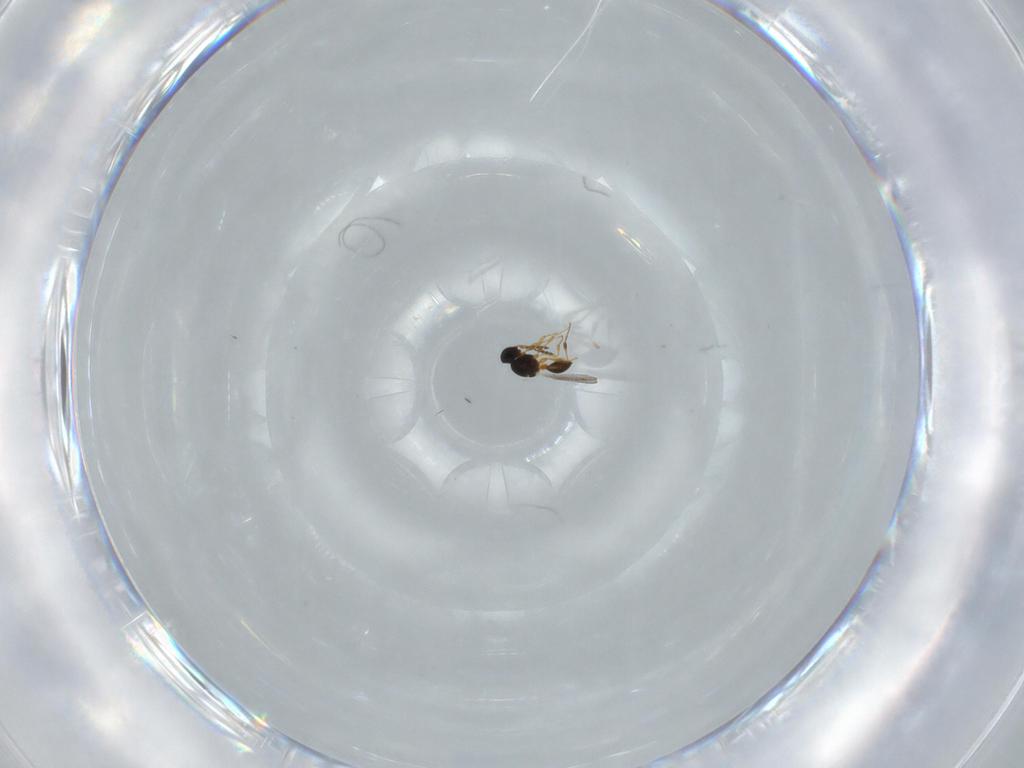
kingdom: Animalia
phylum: Arthropoda
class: Insecta
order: Hymenoptera
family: Platygastridae
